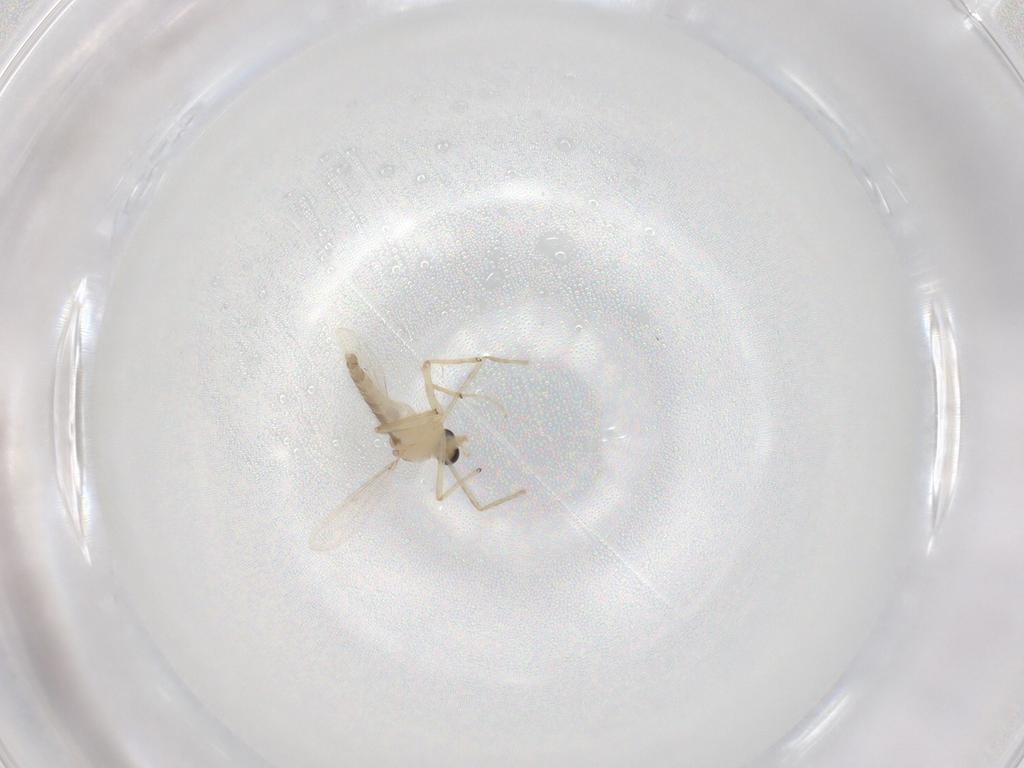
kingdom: Animalia
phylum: Arthropoda
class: Insecta
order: Diptera
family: Chironomidae
